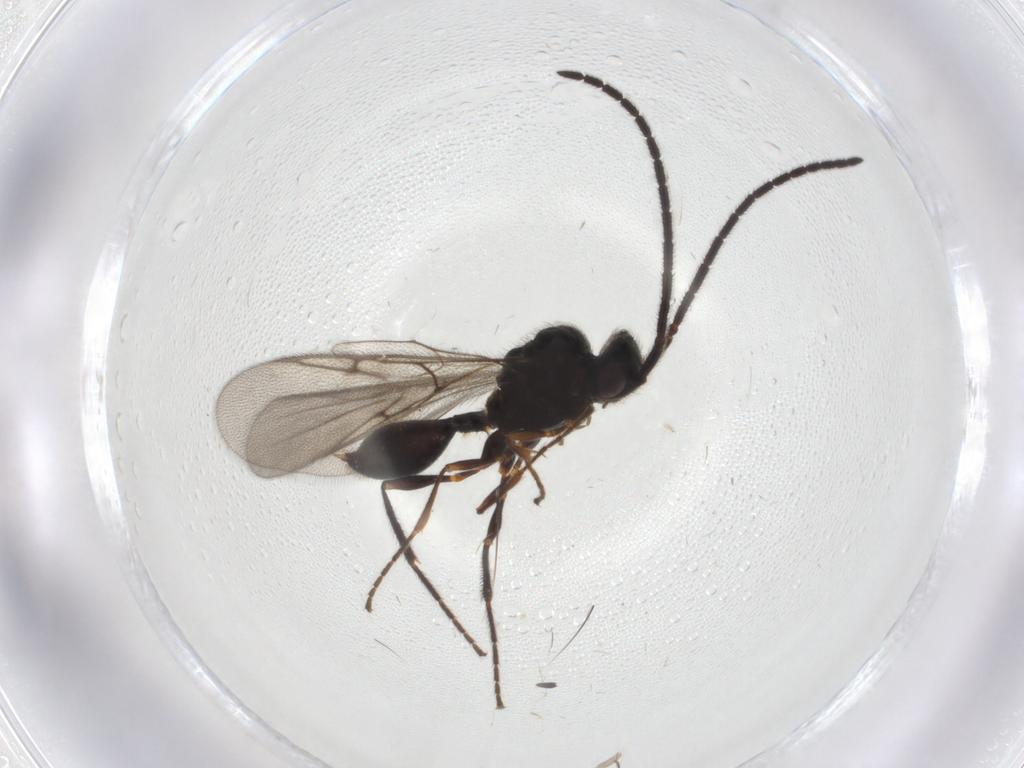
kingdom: Animalia
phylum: Arthropoda
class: Insecta
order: Hymenoptera
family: Diapriidae
